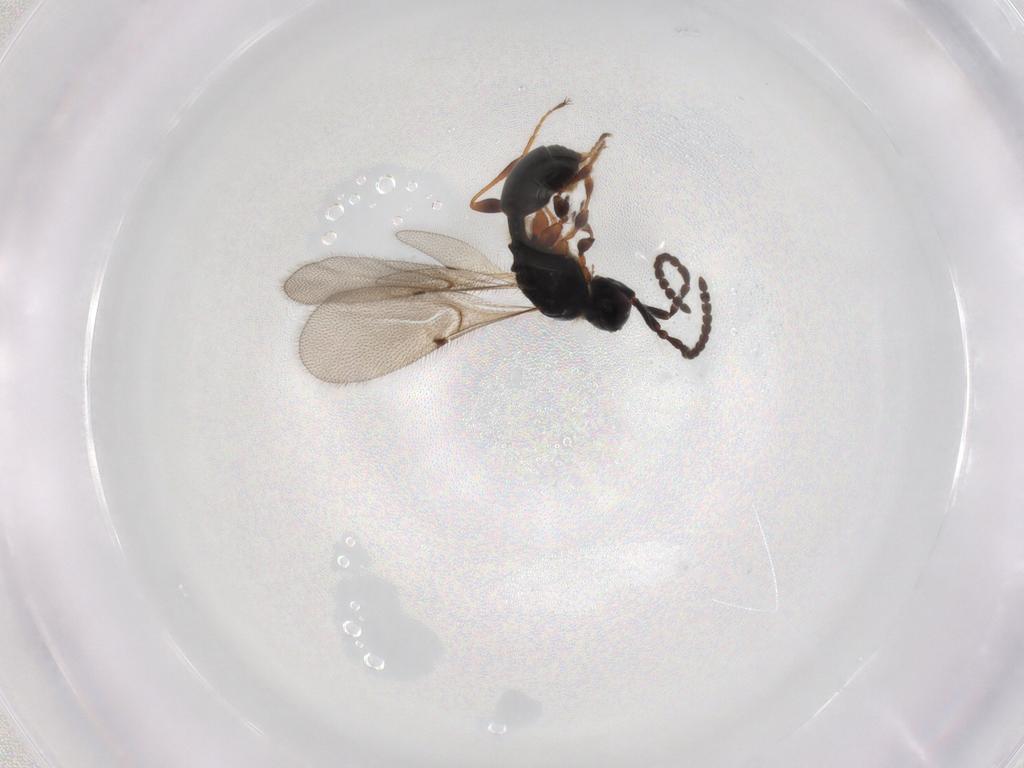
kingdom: Animalia
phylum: Arthropoda
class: Insecta
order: Hymenoptera
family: Diapriidae
